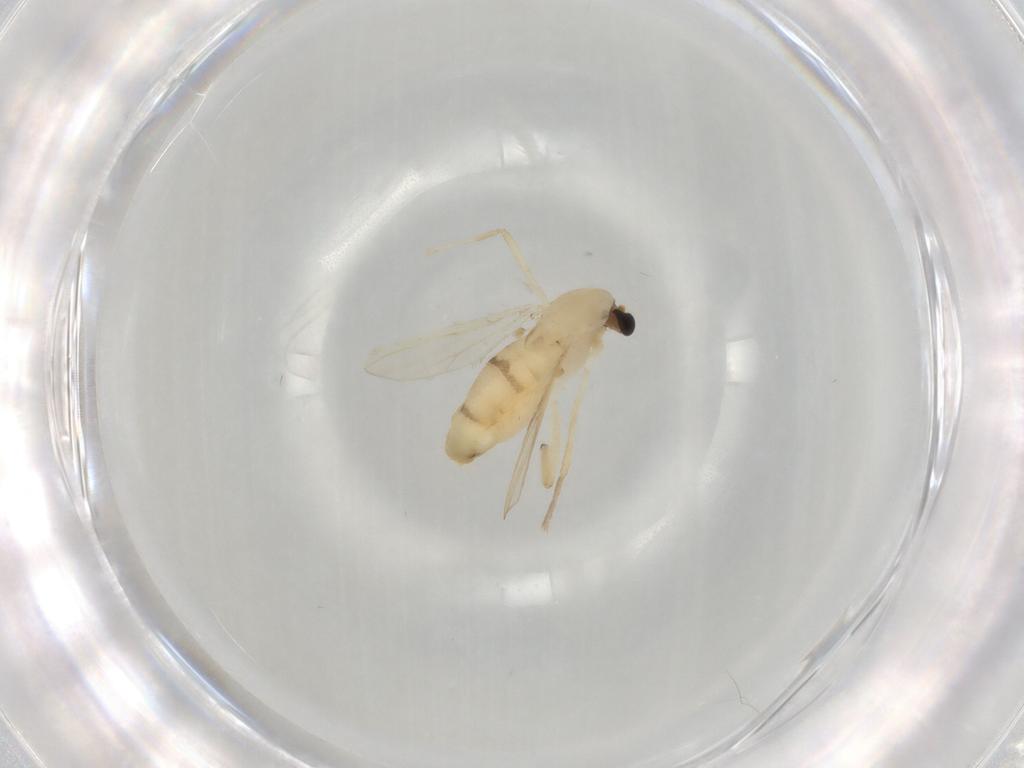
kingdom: Animalia
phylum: Arthropoda
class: Insecta
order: Diptera
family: Chironomidae
